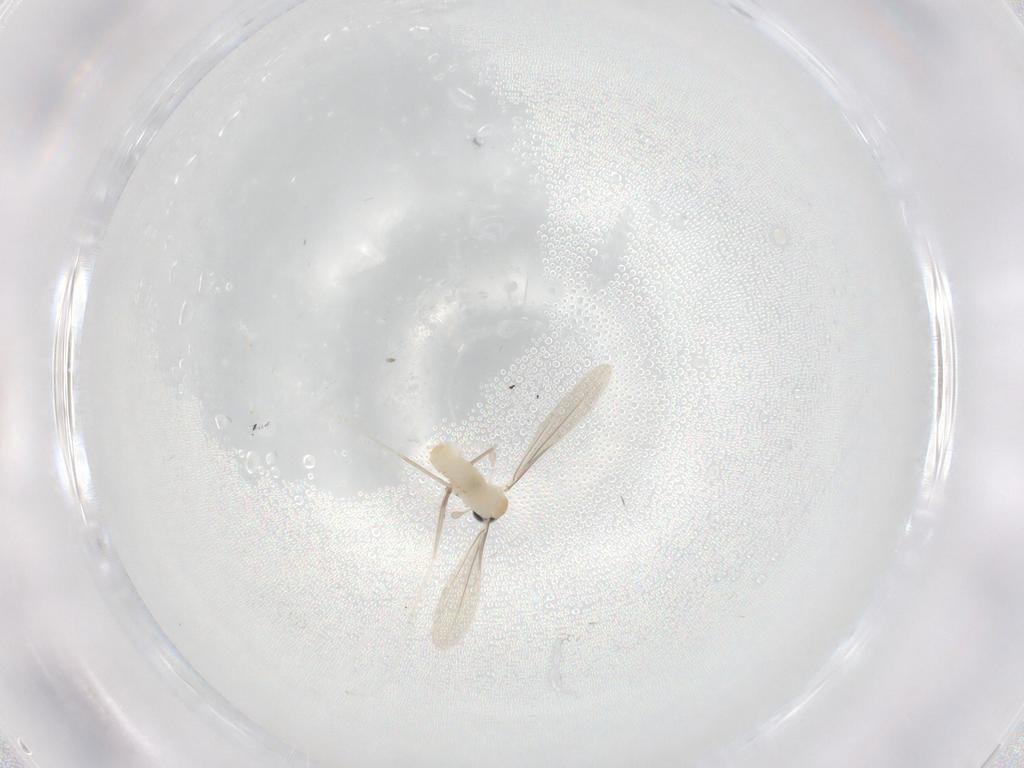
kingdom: Animalia
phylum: Arthropoda
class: Insecta
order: Diptera
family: Cecidomyiidae
